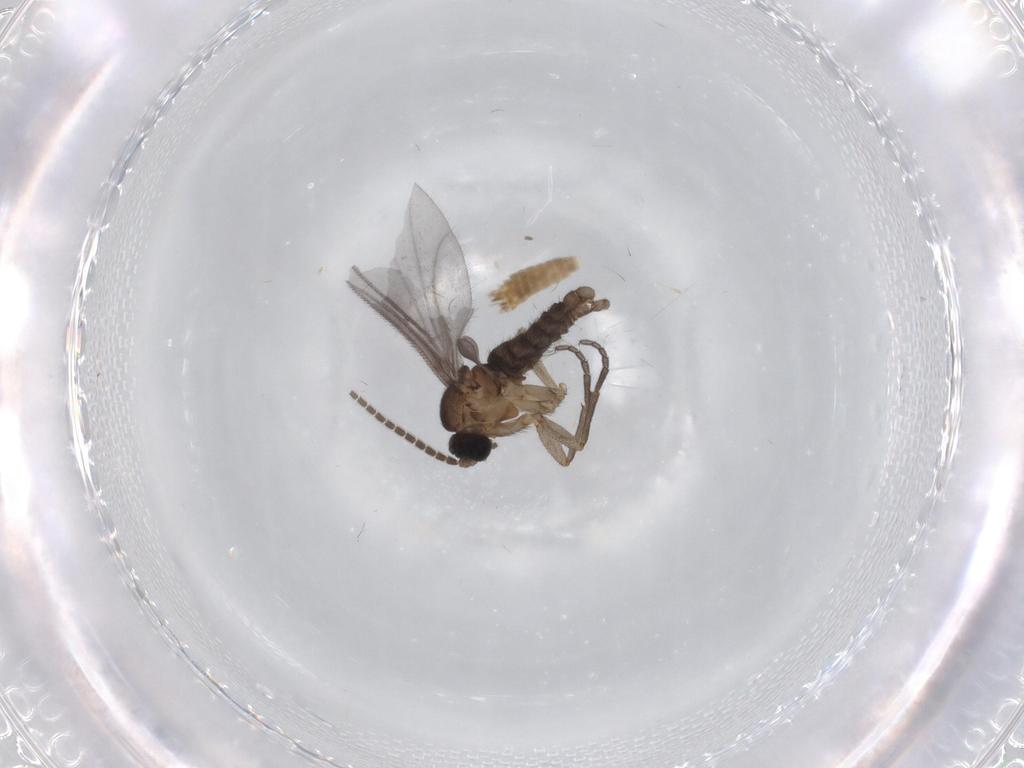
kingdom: Animalia
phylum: Arthropoda
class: Insecta
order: Diptera
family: Sciaridae
